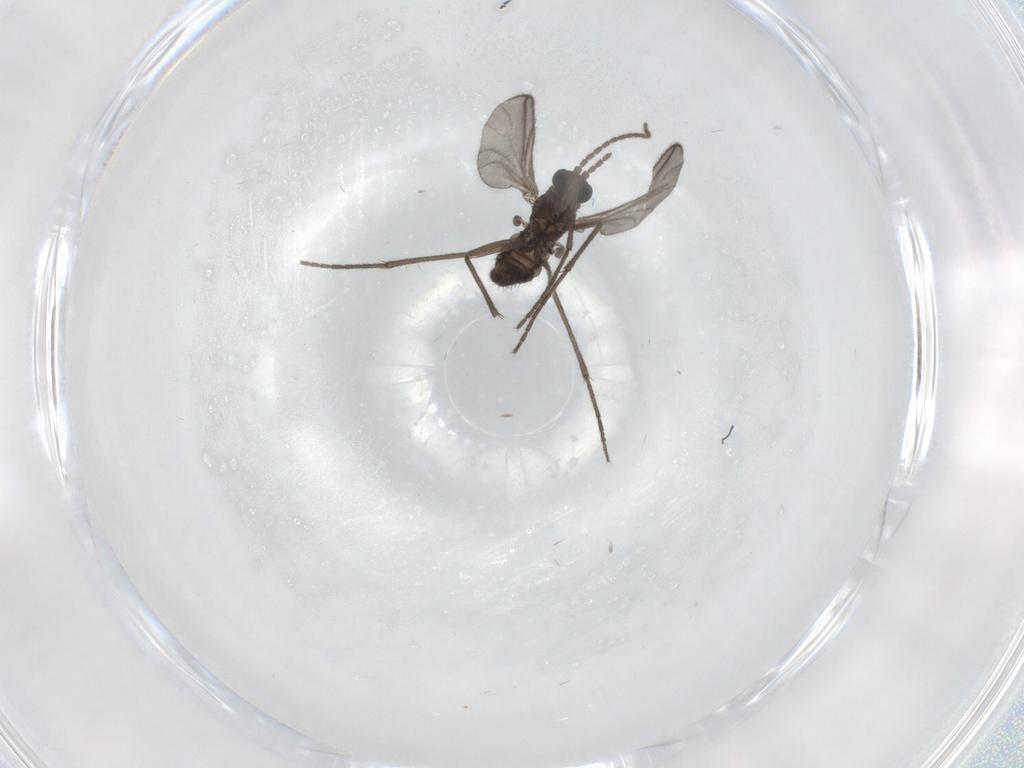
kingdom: Animalia
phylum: Arthropoda
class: Insecta
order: Diptera
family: Sciaridae
